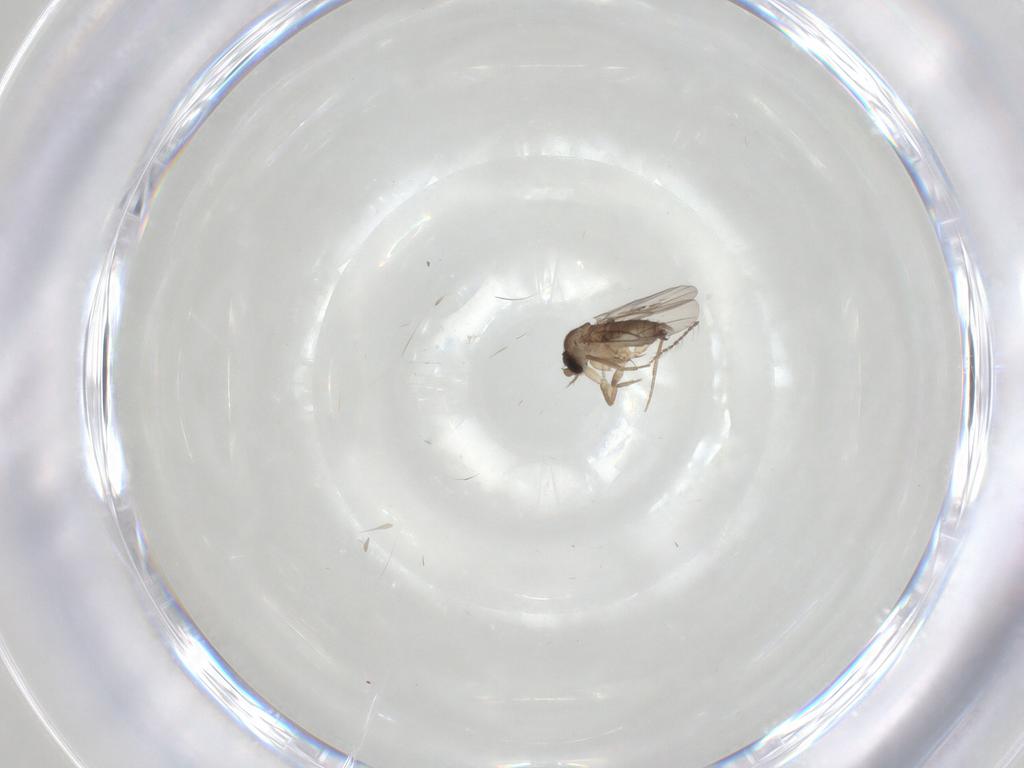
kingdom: Animalia
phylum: Arthropoda
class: Insecta
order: Diptera
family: Phoridae
